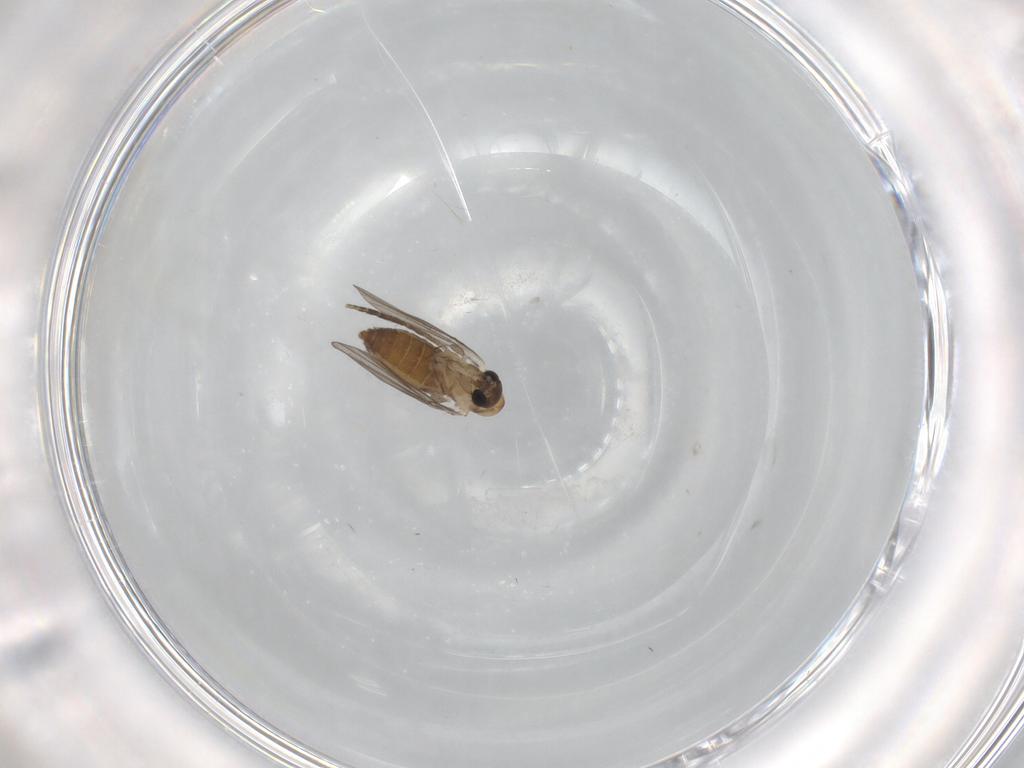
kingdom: Animalia
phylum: Arthropoda
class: Insecta
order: Diptera
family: Psychodidae
